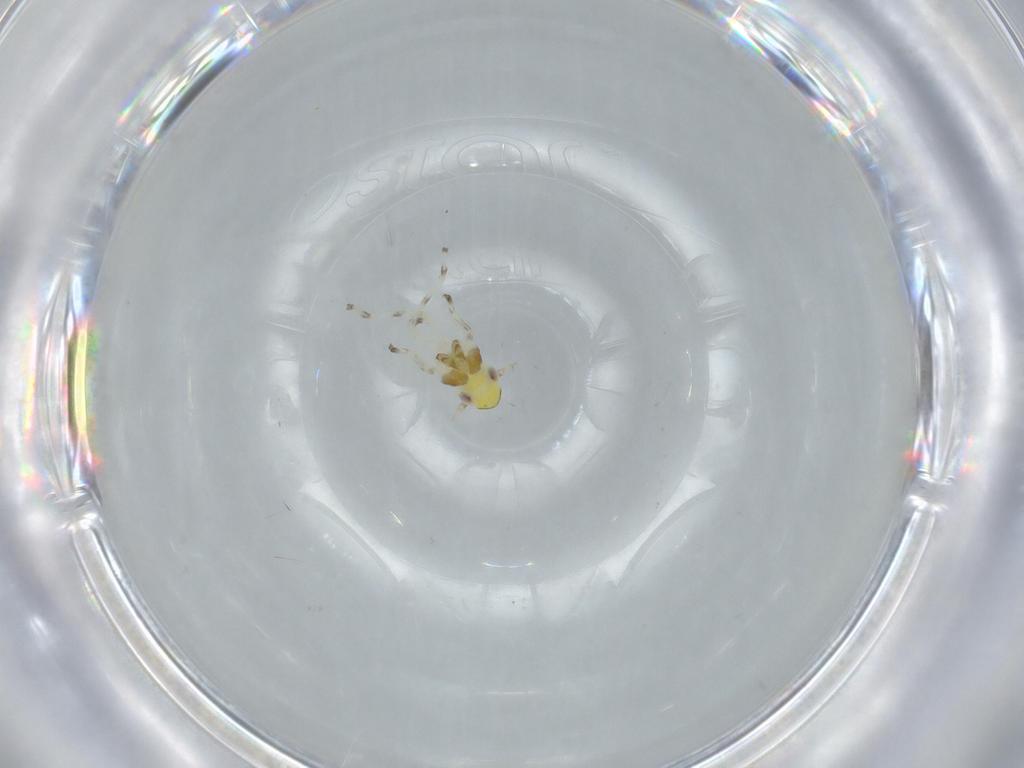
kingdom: Animalia
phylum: Arthropoda
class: Insecta
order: Hemiptera
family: Cicadellidae
